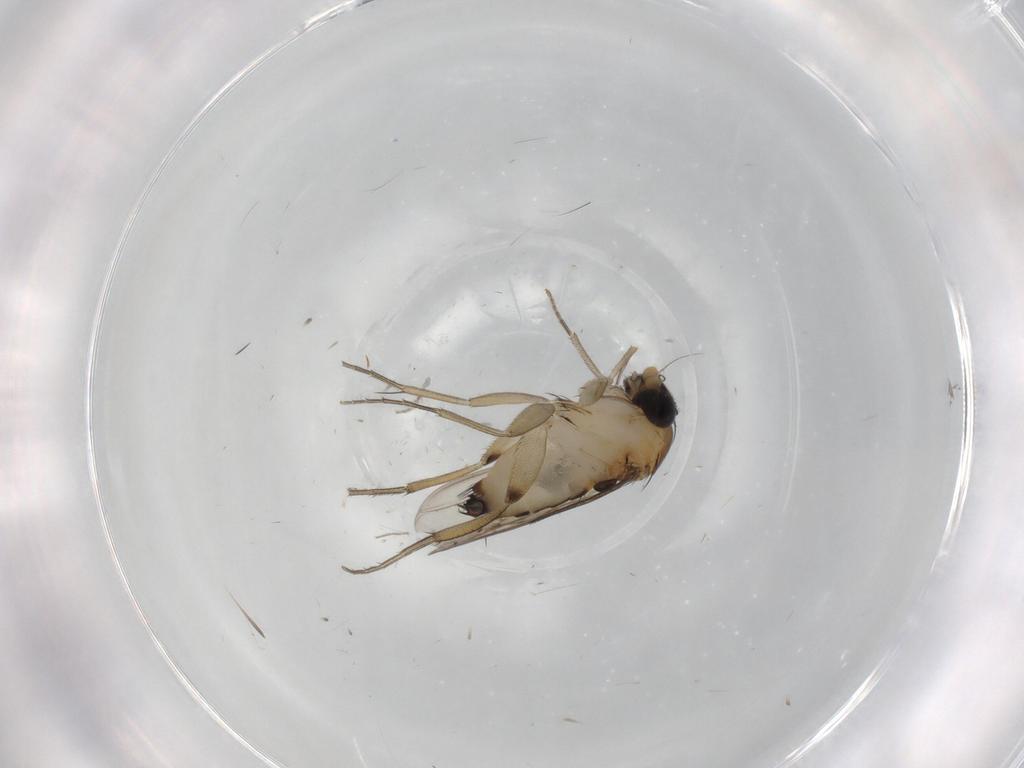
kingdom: Animalia
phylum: Arthropoda
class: Insecta
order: Diptera
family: Phoridae
